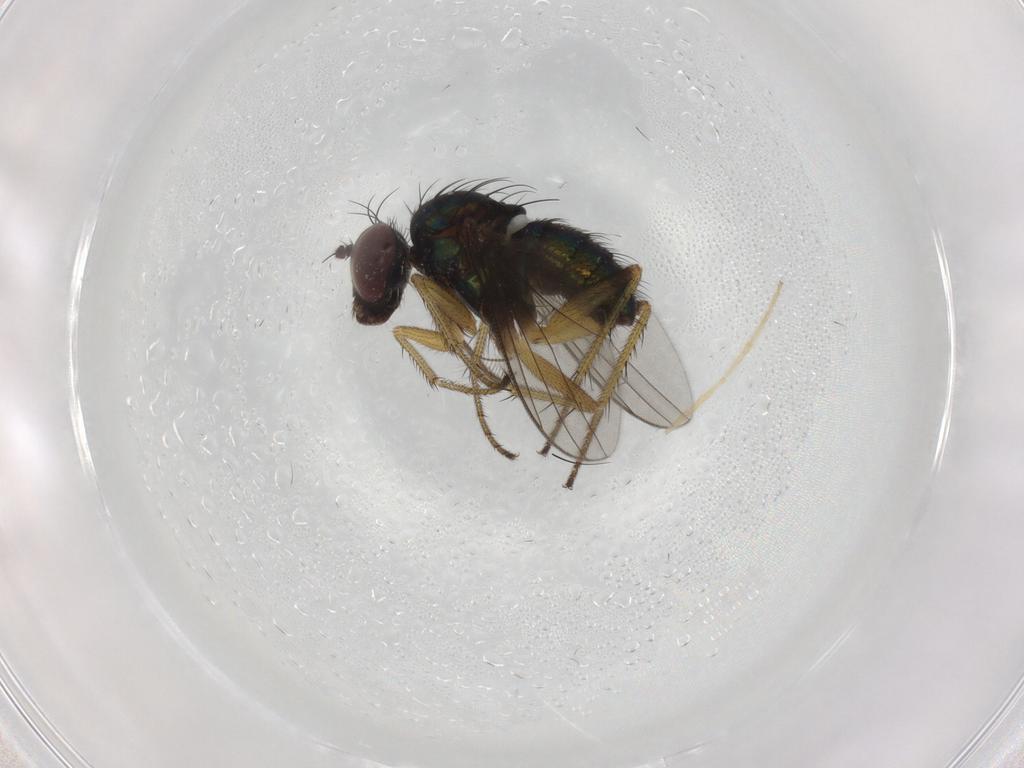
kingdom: Animalia
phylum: Arthropoda
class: Insecta
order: Diptera
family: Dolichopodidae
